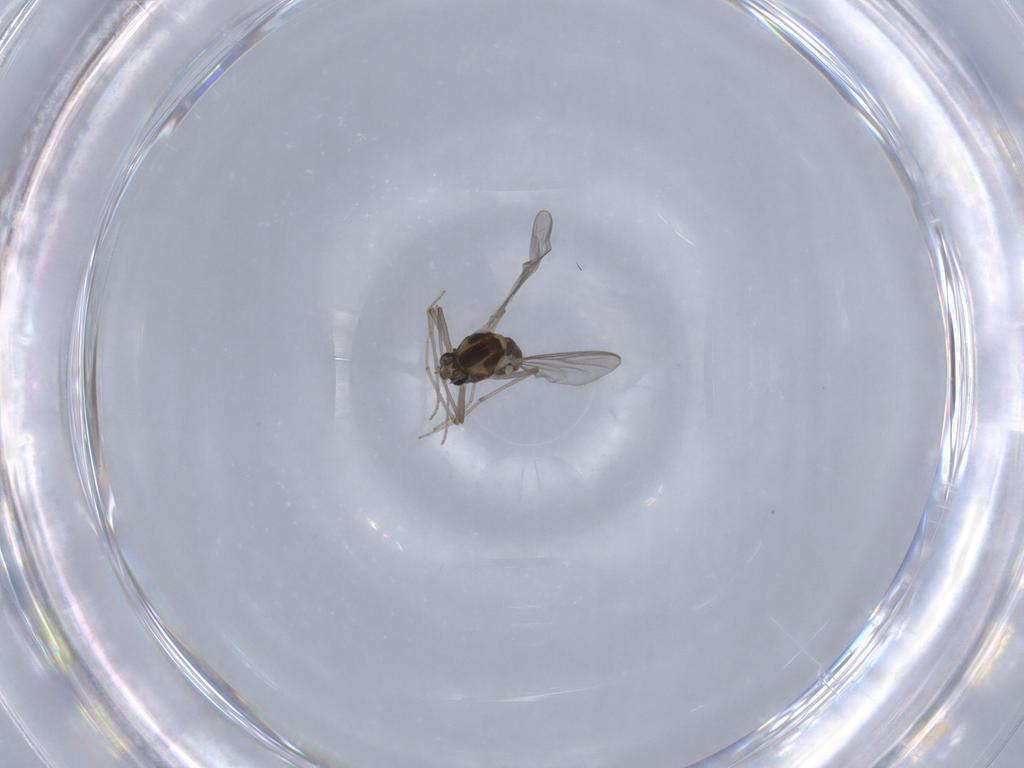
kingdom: Animalia
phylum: Arthropoda
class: Insecta
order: Diptera
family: Chironomidae
